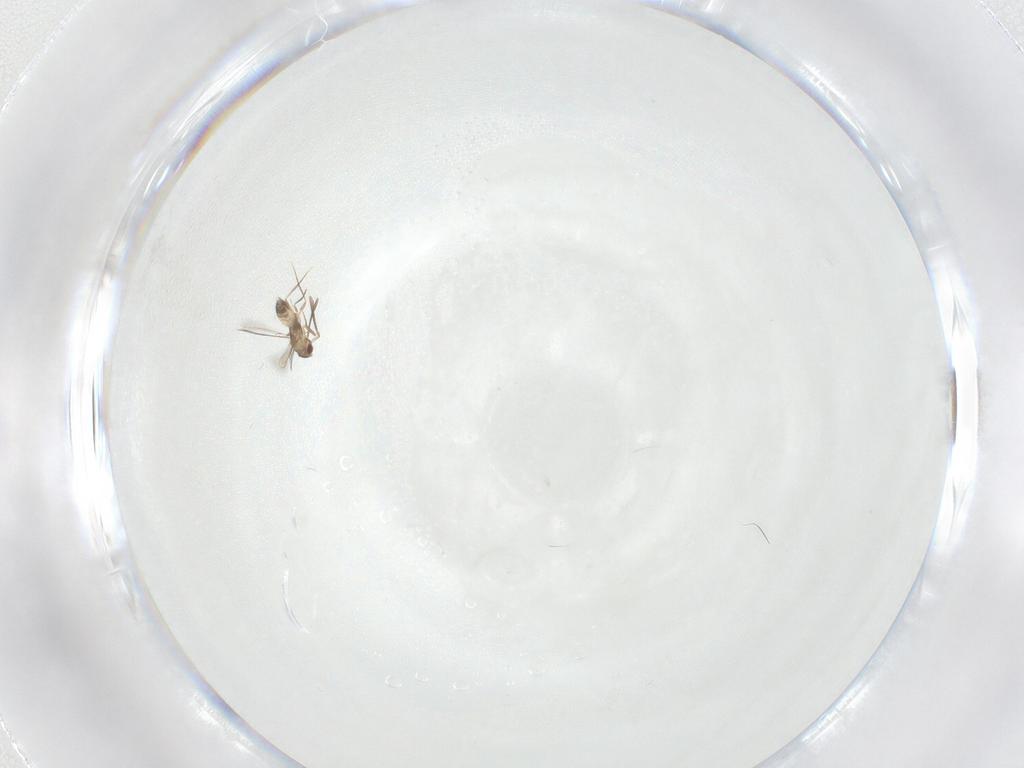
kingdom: Animalia
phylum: Arthropoda
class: Insecta
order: Hymenoptera
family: Mymaridae
